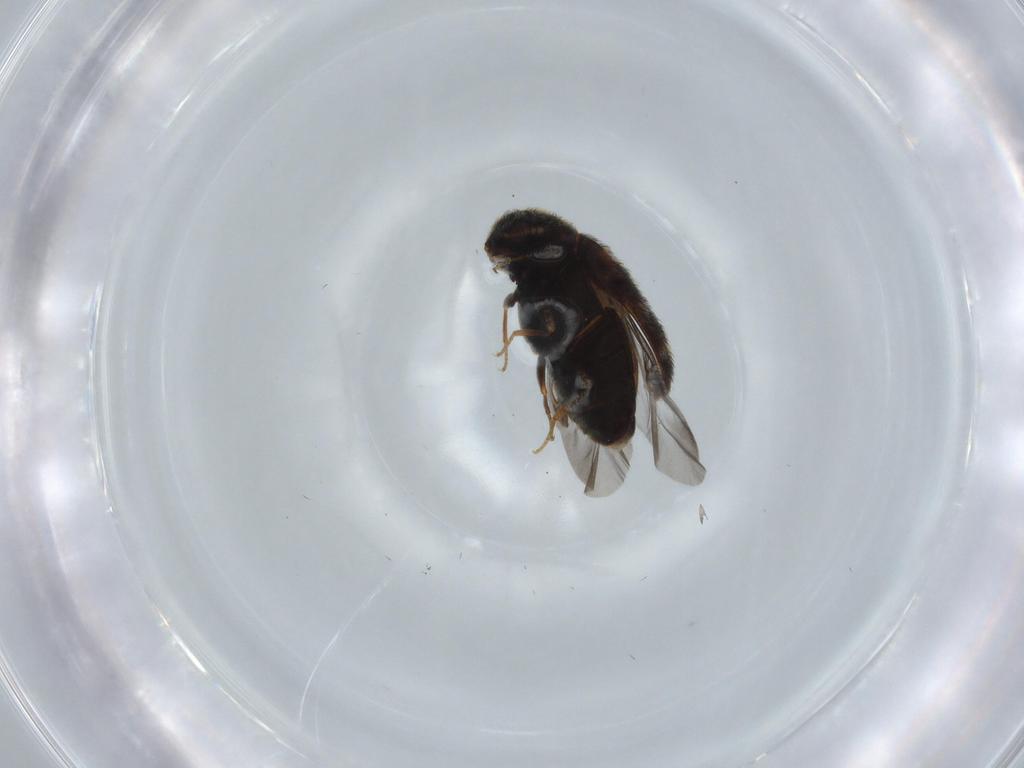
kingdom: Animalia
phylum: Arthropoda
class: Insecta
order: Coleoptera
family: Dermestidae
